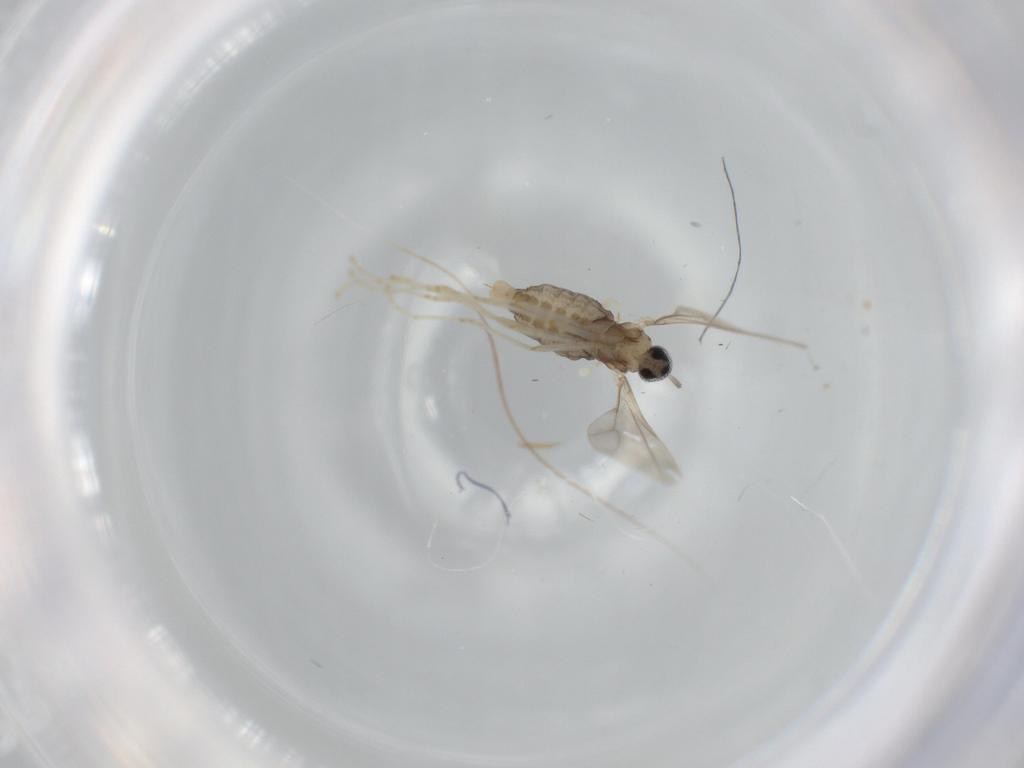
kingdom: Animalia
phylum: Arthropoda
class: Insecta
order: Diptera
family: Cecidomyiidae
